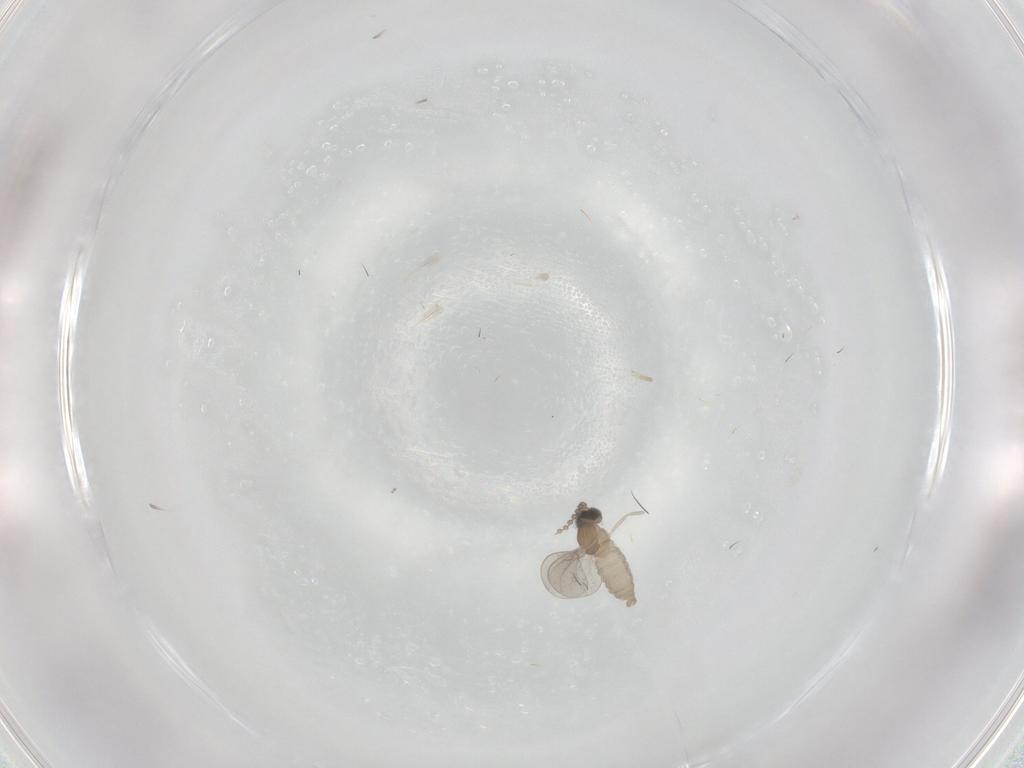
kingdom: Animalia
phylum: Arthropoda
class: Insecta
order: Diptera
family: Cecidomyiidae
